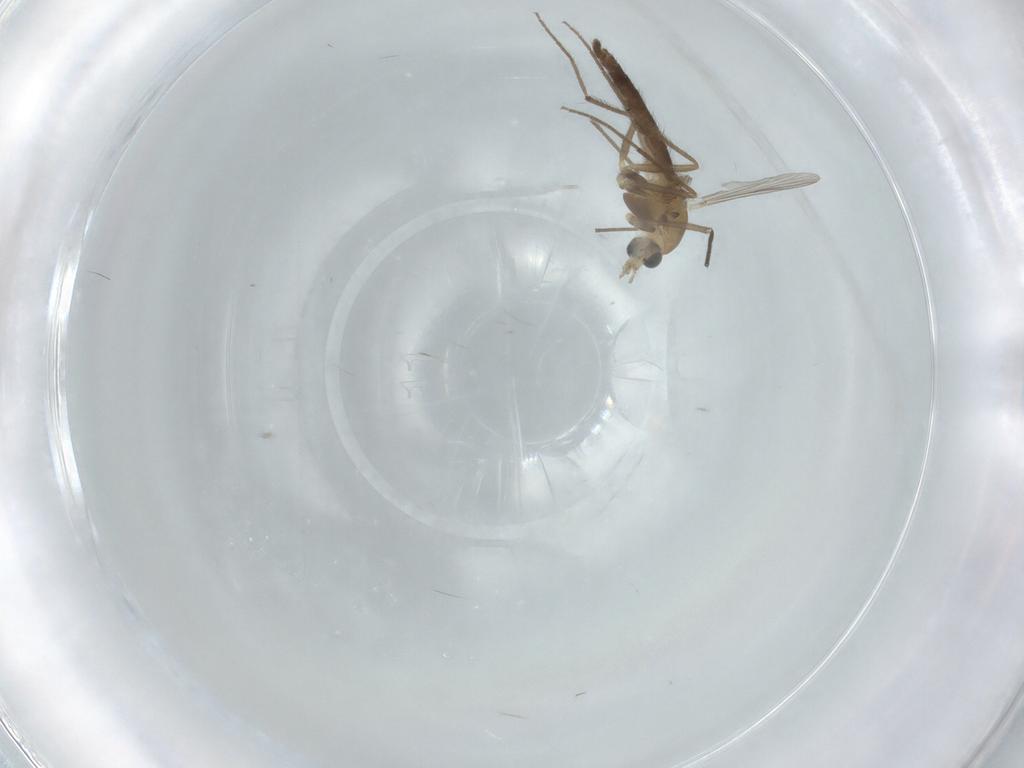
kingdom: Animalia
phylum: Arthropoda
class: Insecta
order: Diptera
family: Chironomidae
